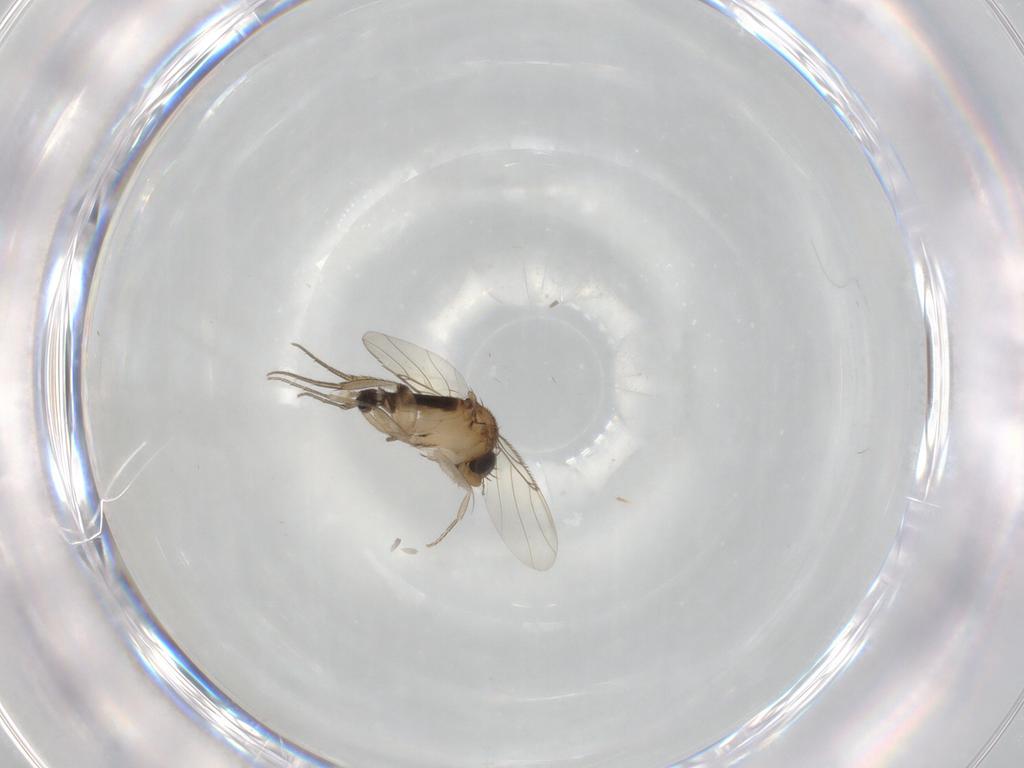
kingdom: Animalia
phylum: Arthropoda
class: Insecta
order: Diptera
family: Phoridae
